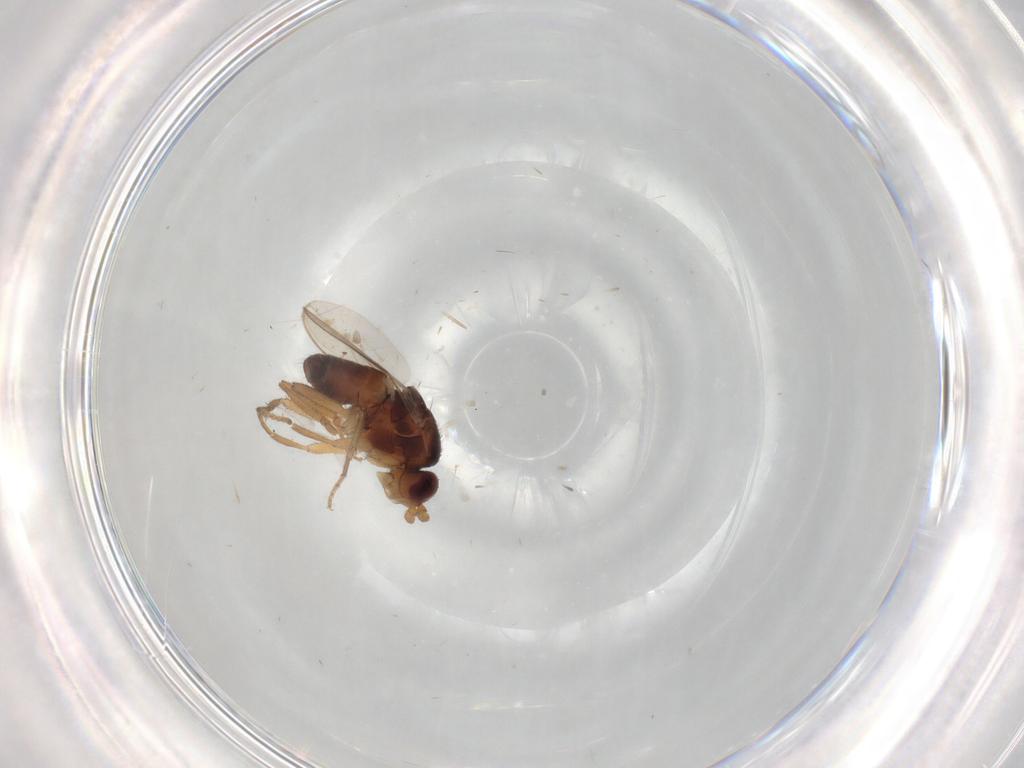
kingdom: Animalia
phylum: Arthropoda
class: Insecta
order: Diptera
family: Sphaeroceridae
